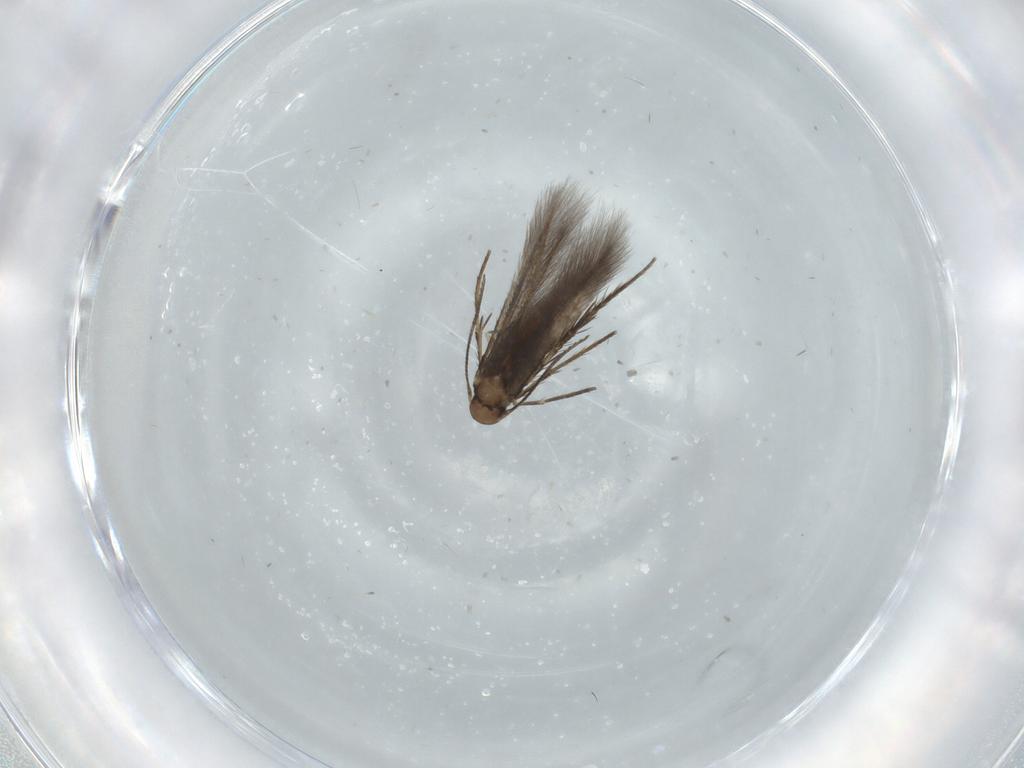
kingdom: Animalia
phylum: Arthropoda
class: Insecta
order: Lepidoptera
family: Pyralidae
